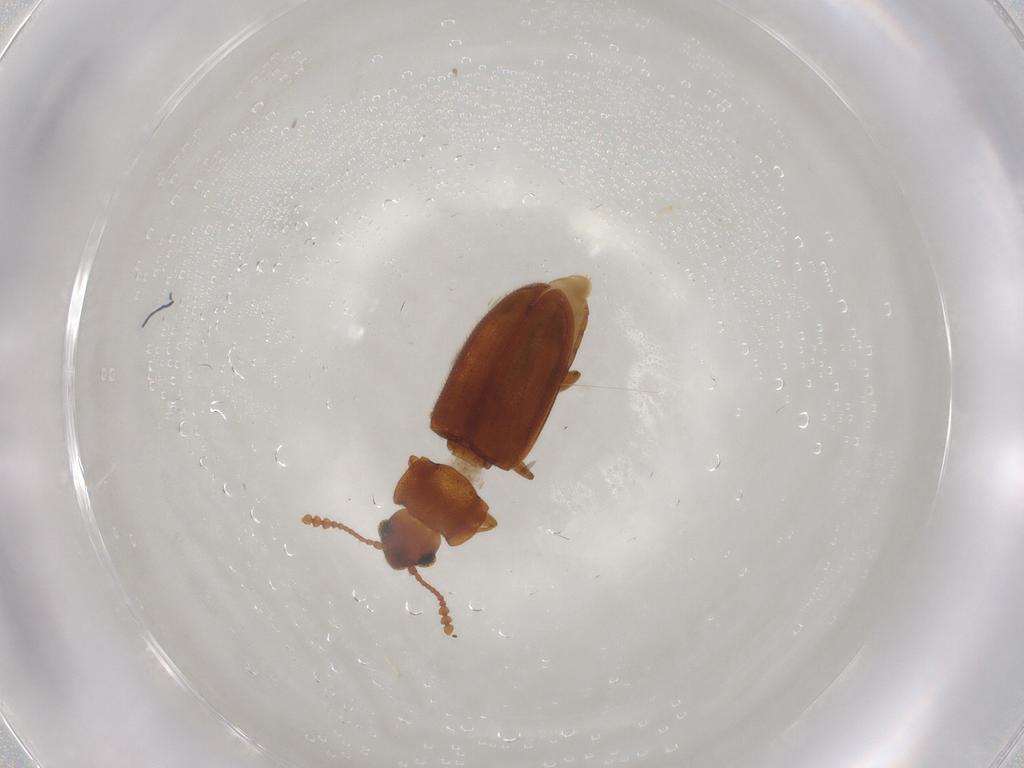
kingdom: Animalia
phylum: Arthropoda
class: Insecta
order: Coleoptera
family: Erotylidae
